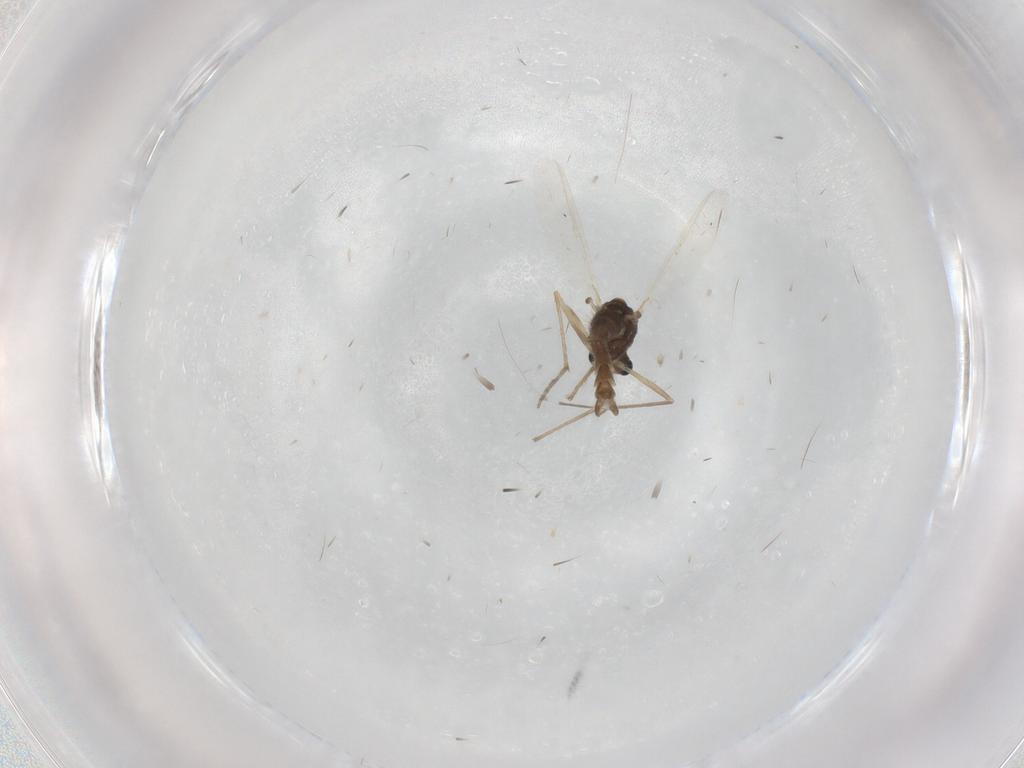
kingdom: Animalia
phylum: Arthropoda
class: Insecta
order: Diptera
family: Chironomidae
